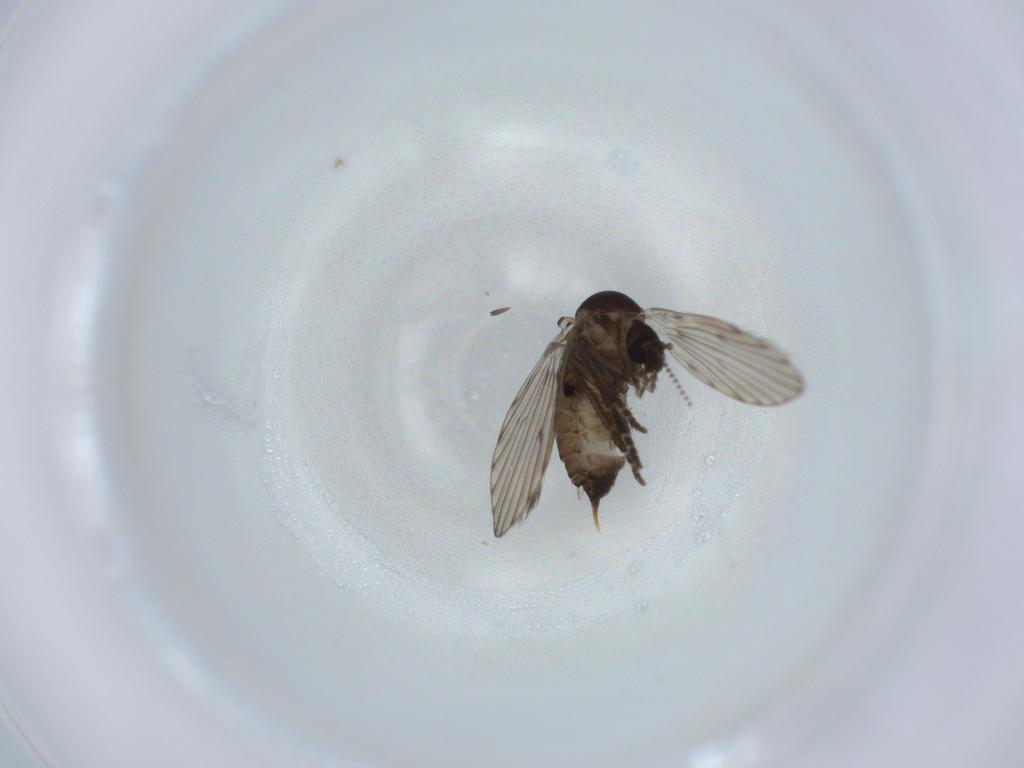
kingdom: Animalia
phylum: Arthropoda
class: Insecta
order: Diptera
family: Psychodidae
